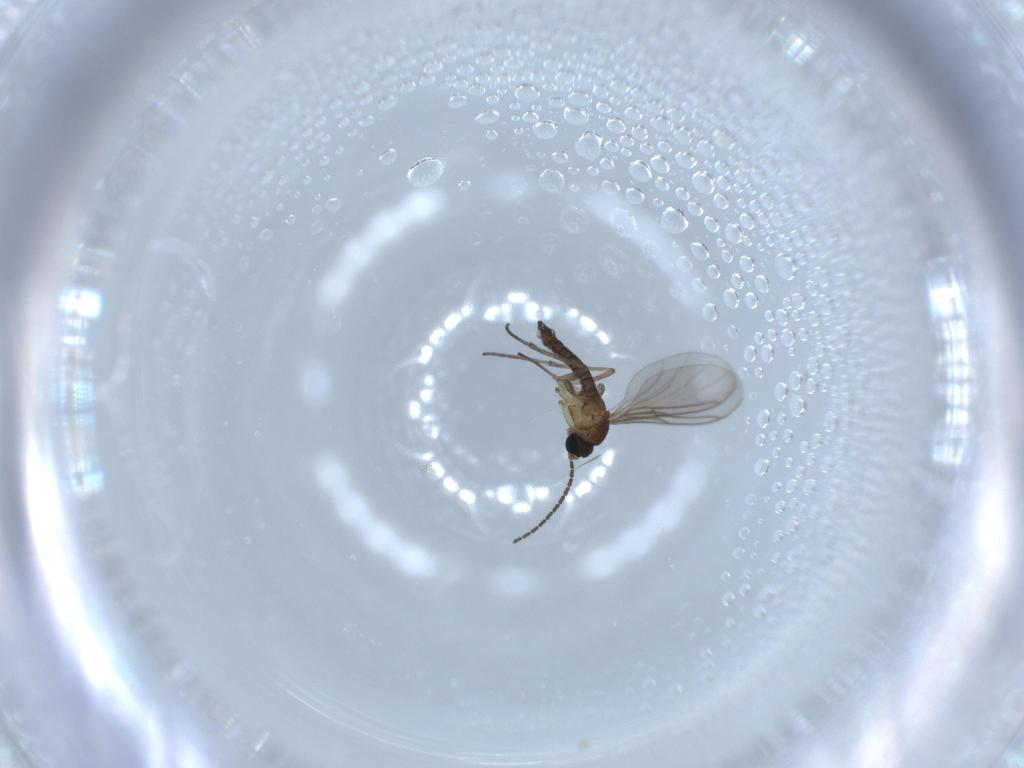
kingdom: Animalia
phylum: Arthropoda
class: Insecta
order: Diptera
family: Sciaridae
